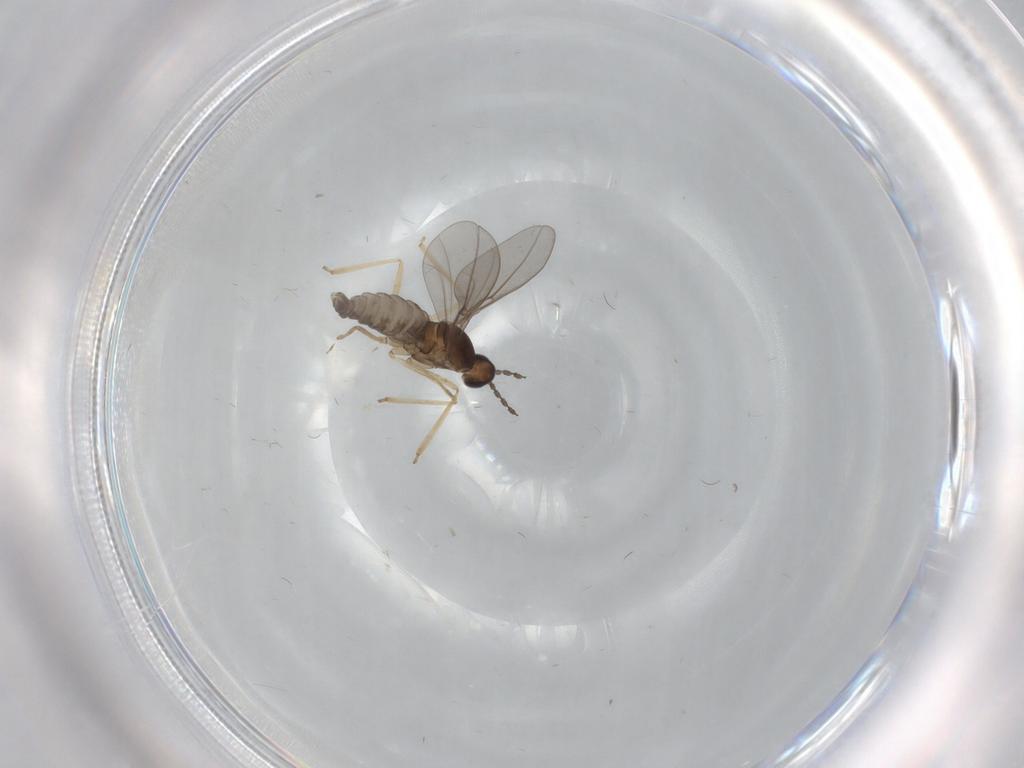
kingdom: Animalia
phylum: Arthropoda
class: Insecta
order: Diptera
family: Cecidomyiidae
